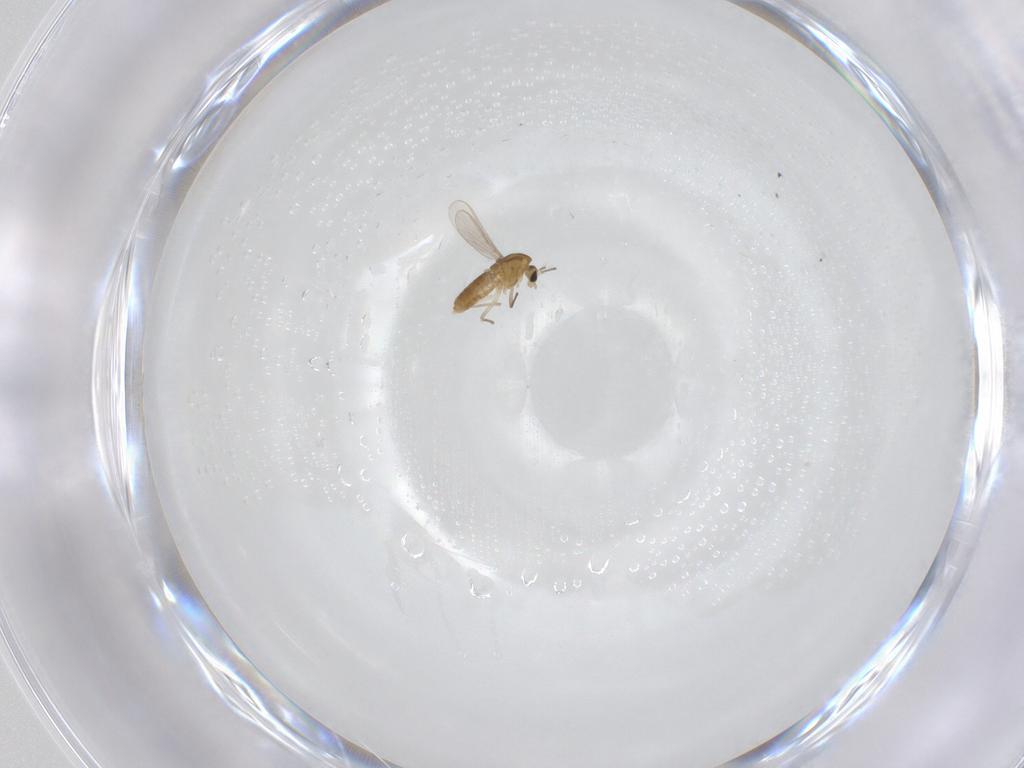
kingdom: Animalia
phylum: Arthropoda
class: Insecta
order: Diptera
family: Chironomidae
